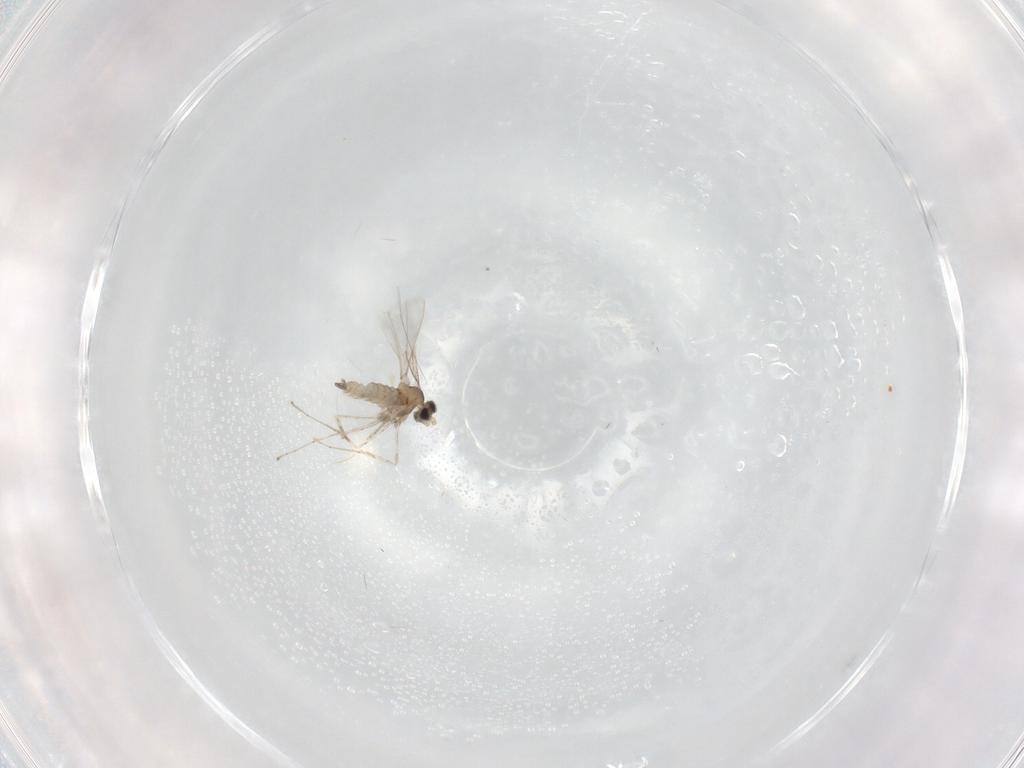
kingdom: Animalia
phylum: Arthropoda
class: Insecta
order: Diptera
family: Cecidomyiidae
